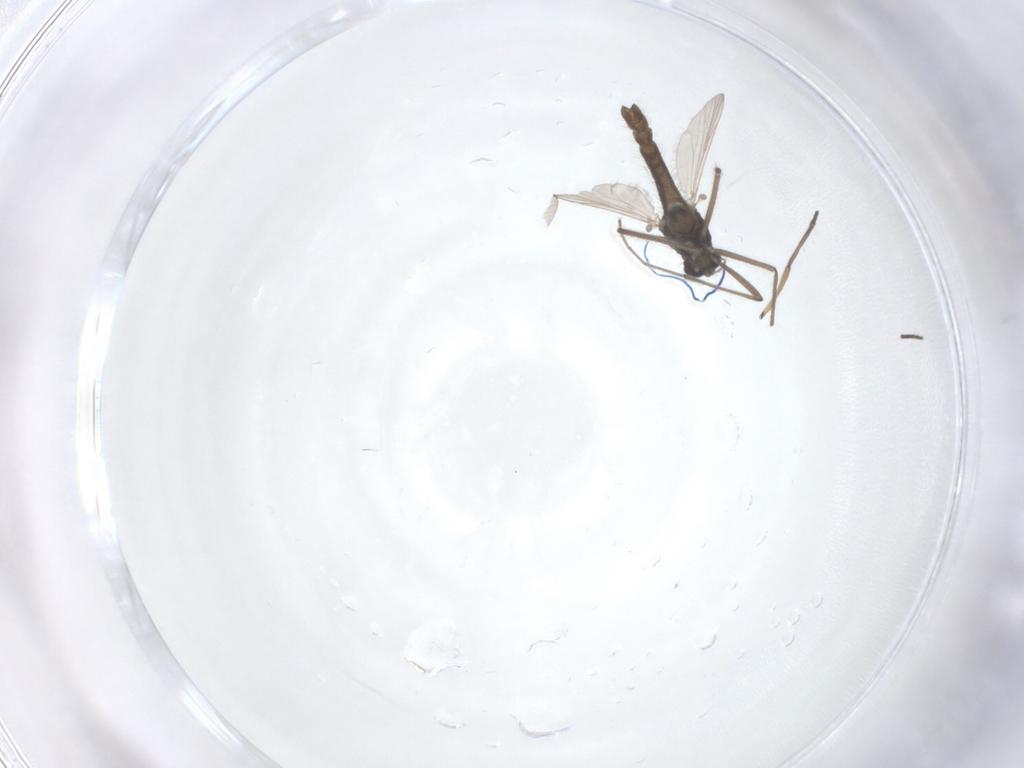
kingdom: Animalia
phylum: Arthropoda
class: Insecta
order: Diptera
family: Chironomidae
